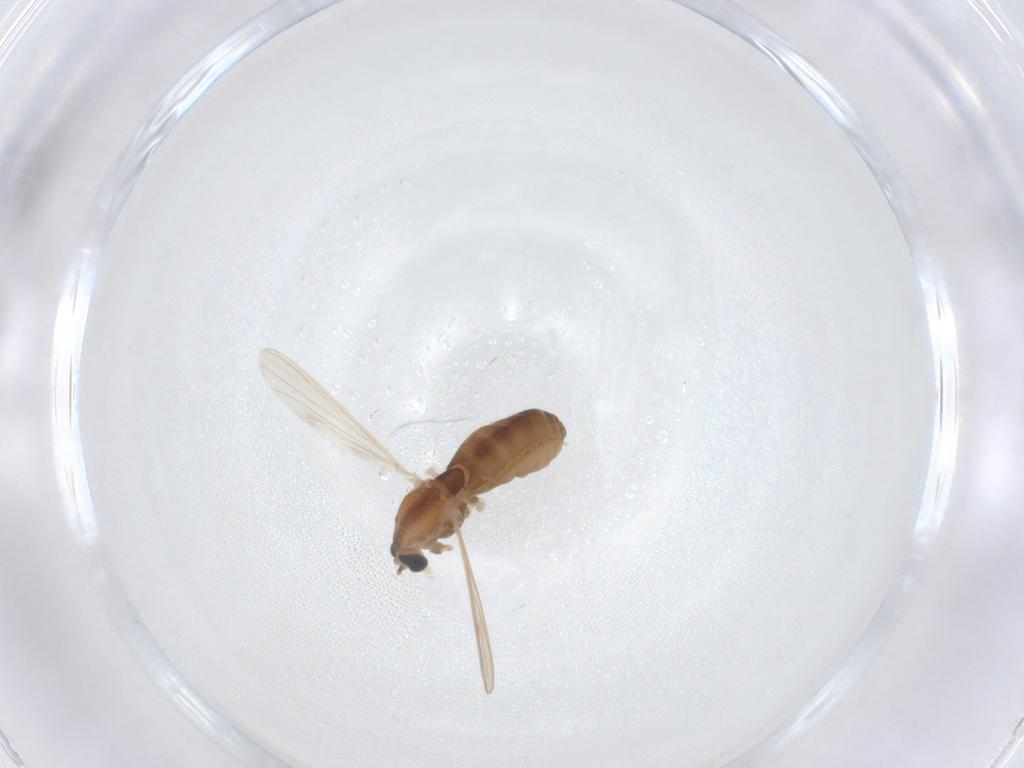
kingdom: Animalia
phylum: Arthropoda
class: Insecta
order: Diptera
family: Chironomidae
